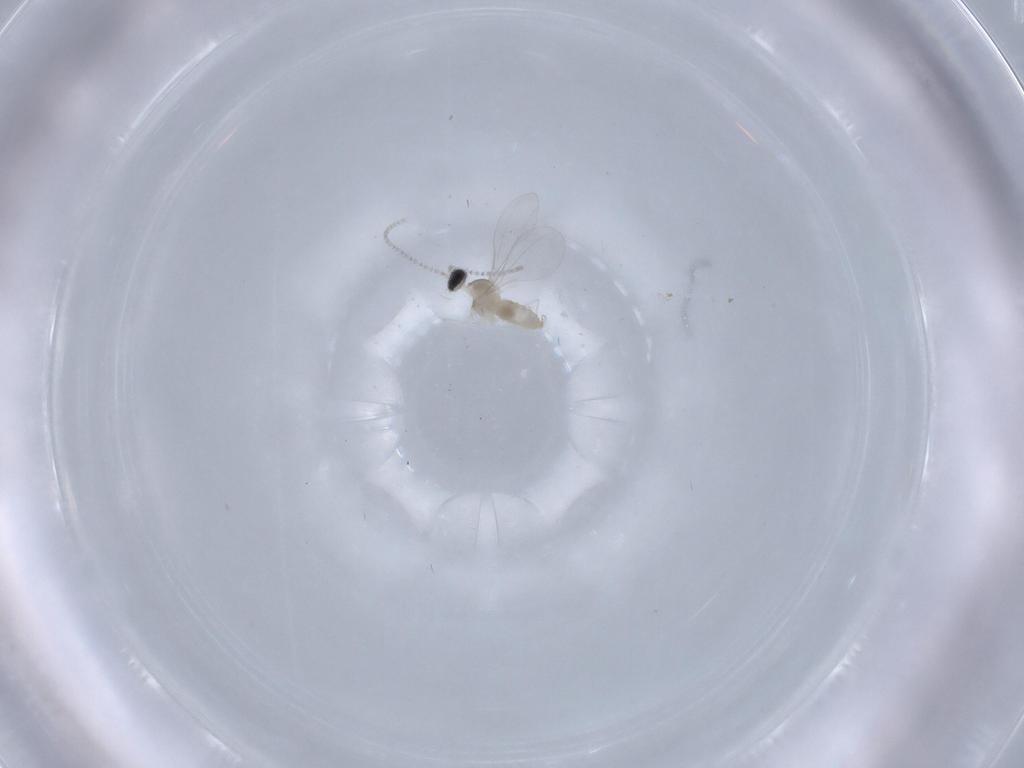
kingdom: Animalia
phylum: Arthropoda
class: Insecta
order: Diptera
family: Cecidomyiidae
